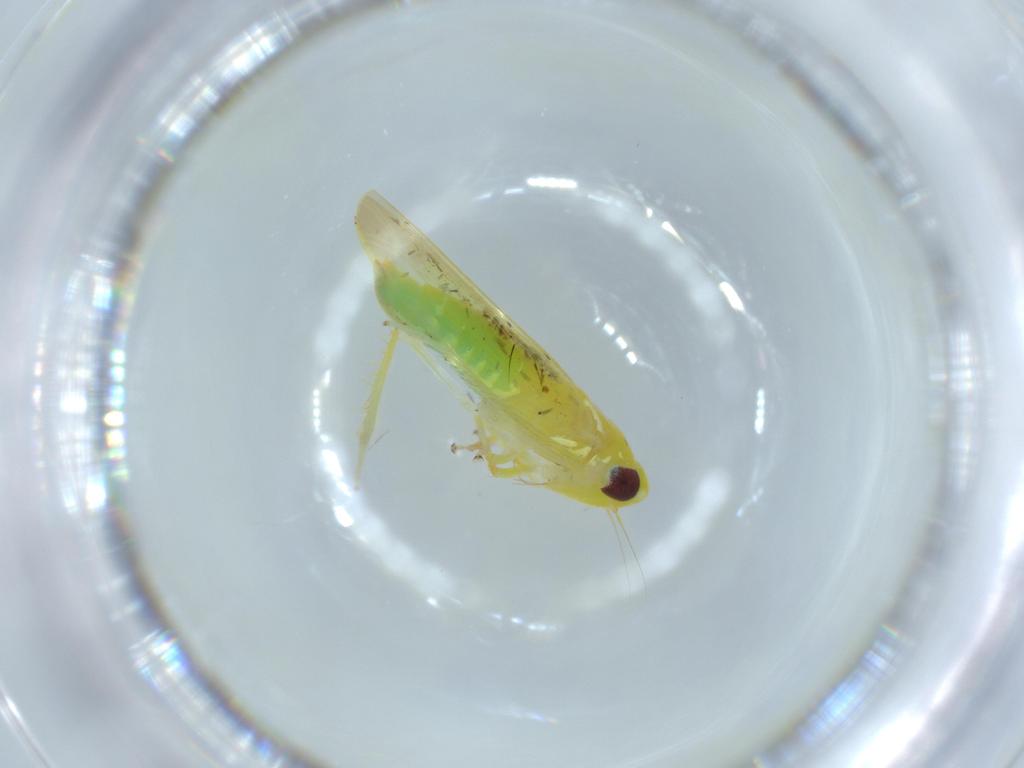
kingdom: Animalia
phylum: Arthropoda
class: Insecta
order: Hemiptera
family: Cicadellidae
